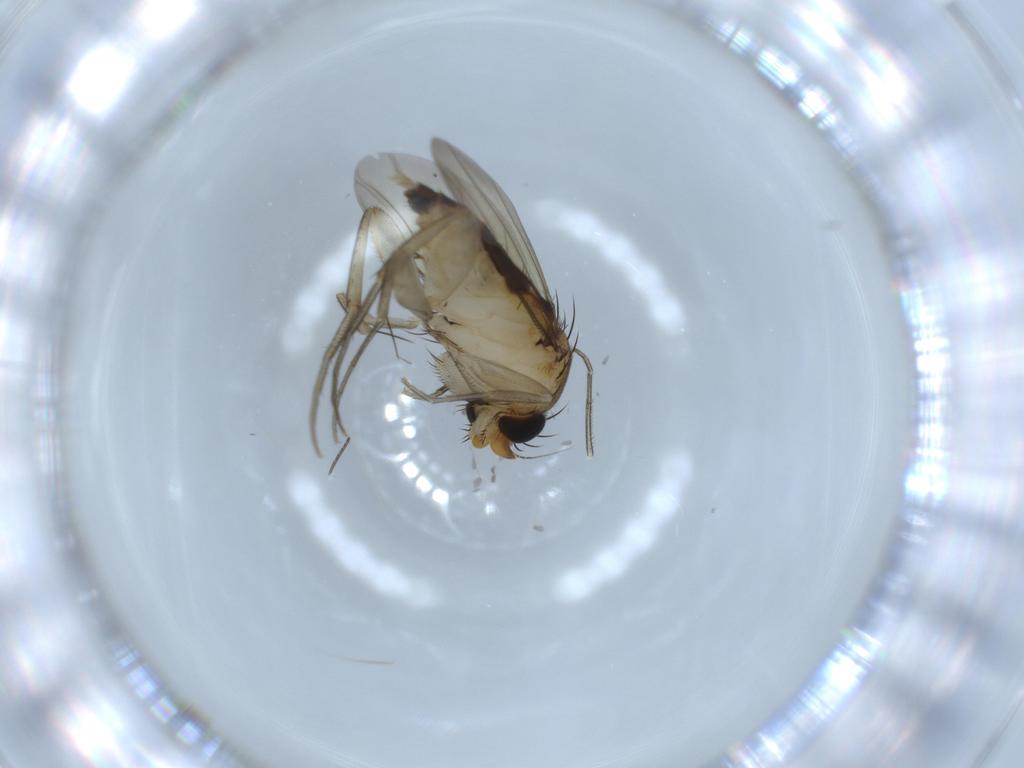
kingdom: Animalia
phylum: Arthropoda
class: Insecta
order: Diptera
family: Phoridae
